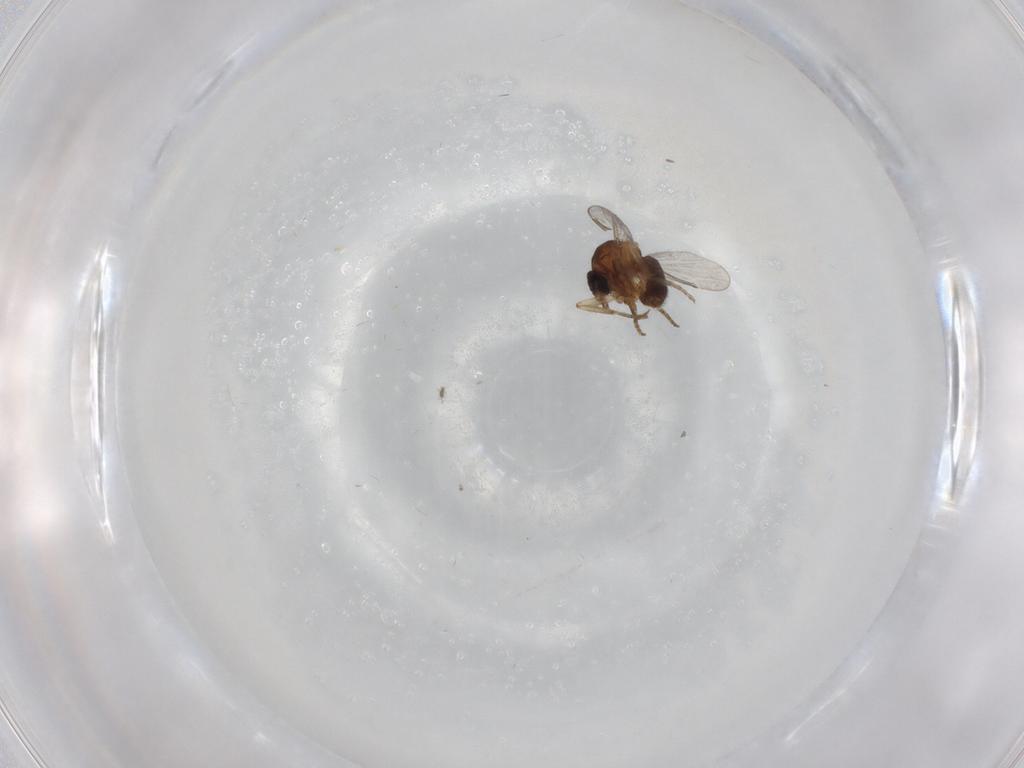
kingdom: Animalia
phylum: Arthropoda
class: Insecta
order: Diptera
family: Ceratopogonidae
